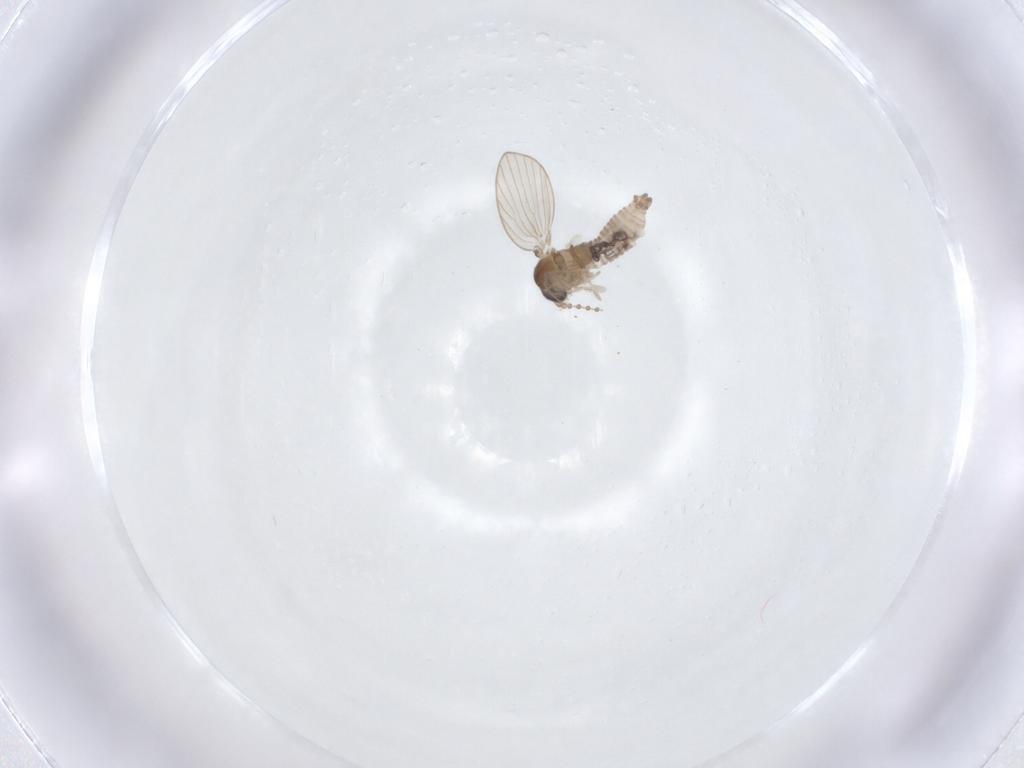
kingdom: Animalia
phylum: Arthropoda
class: Insecta
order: Diptera
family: Psychodidae
